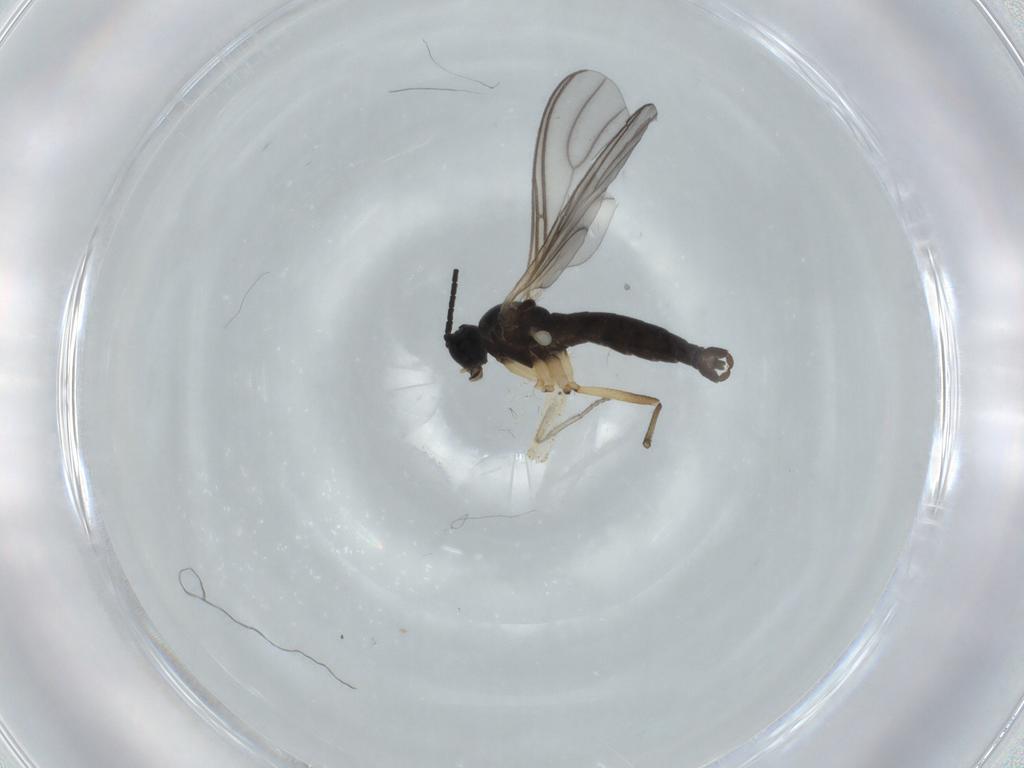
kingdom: Animalia
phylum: Arthropoda
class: Insecta
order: Diptera
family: Sciaridae
